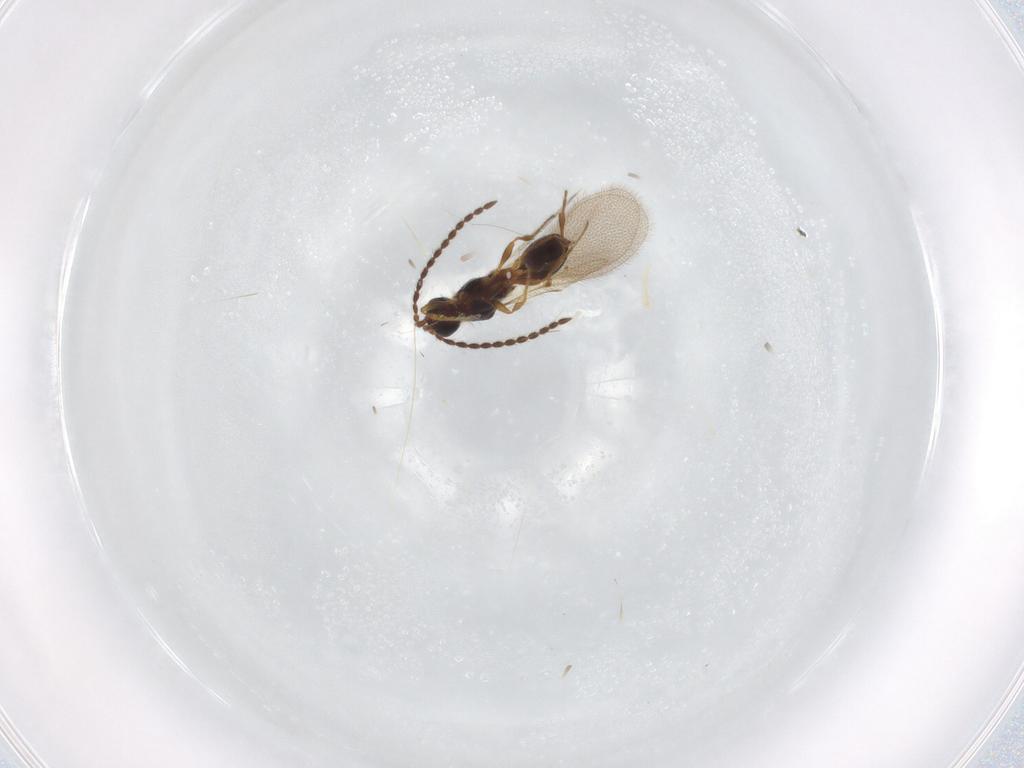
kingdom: Animalia
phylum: Arthropoda
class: Insecta
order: Hymenoptera
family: Diapriidae
